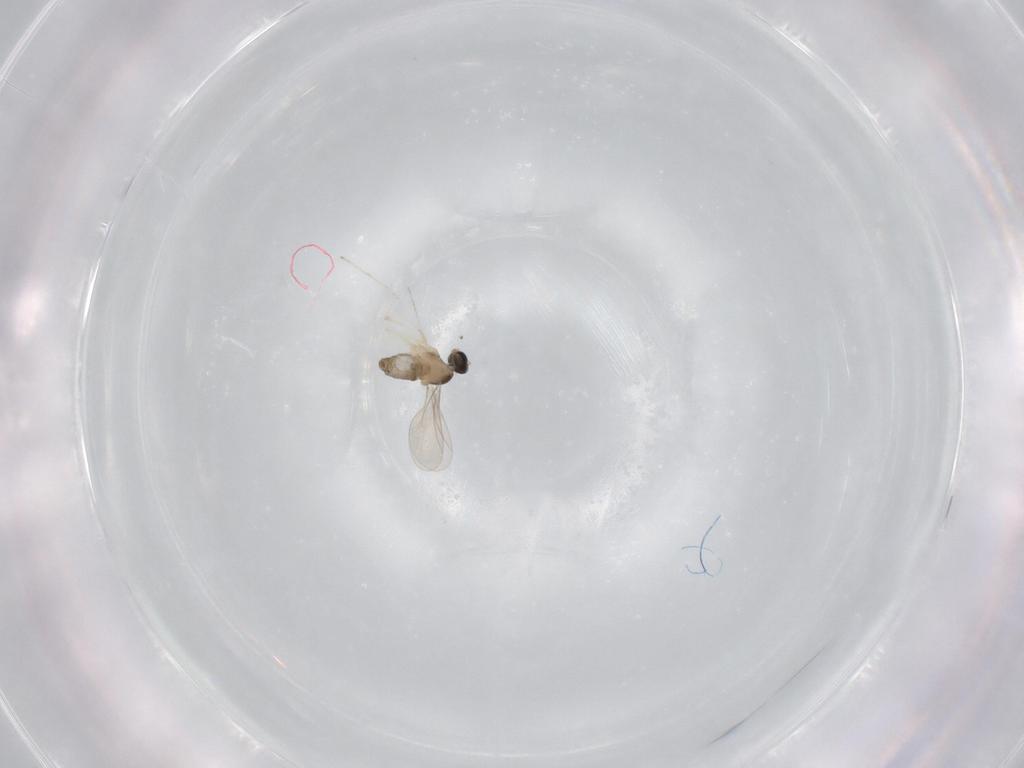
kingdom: Animalia
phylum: Arthropoda
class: Insecta
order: Diptera
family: Cecidomyiidae
